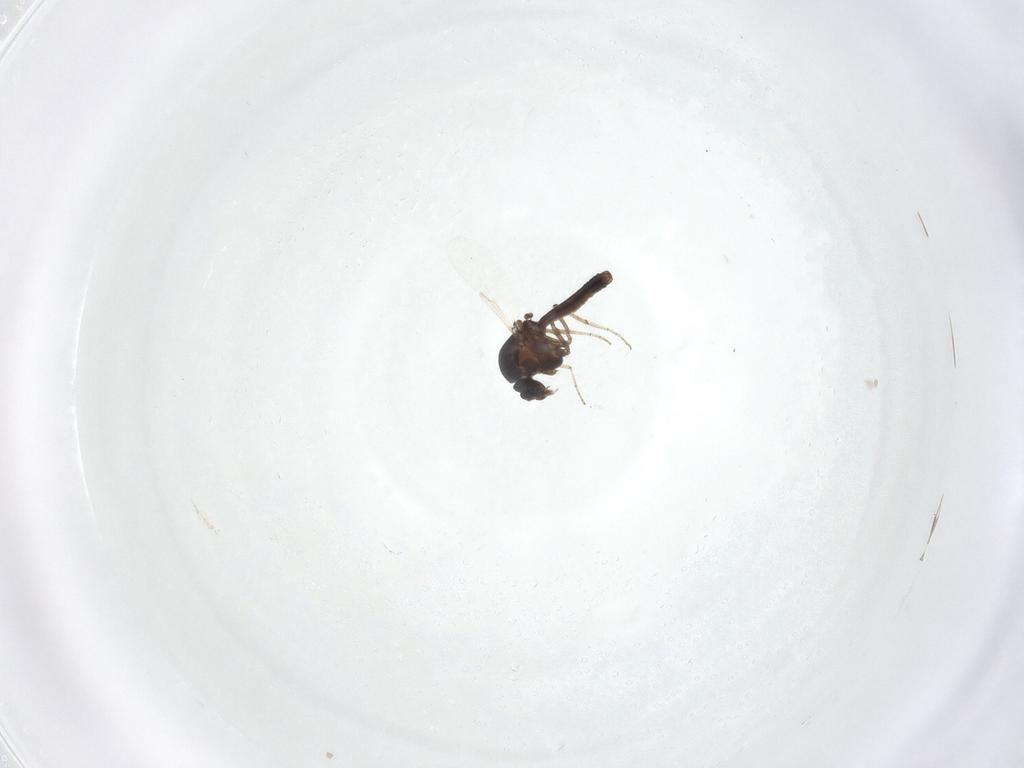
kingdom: Animalia
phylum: Arthropoda
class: Insecta
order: Diptera
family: Ceratopogonidae
